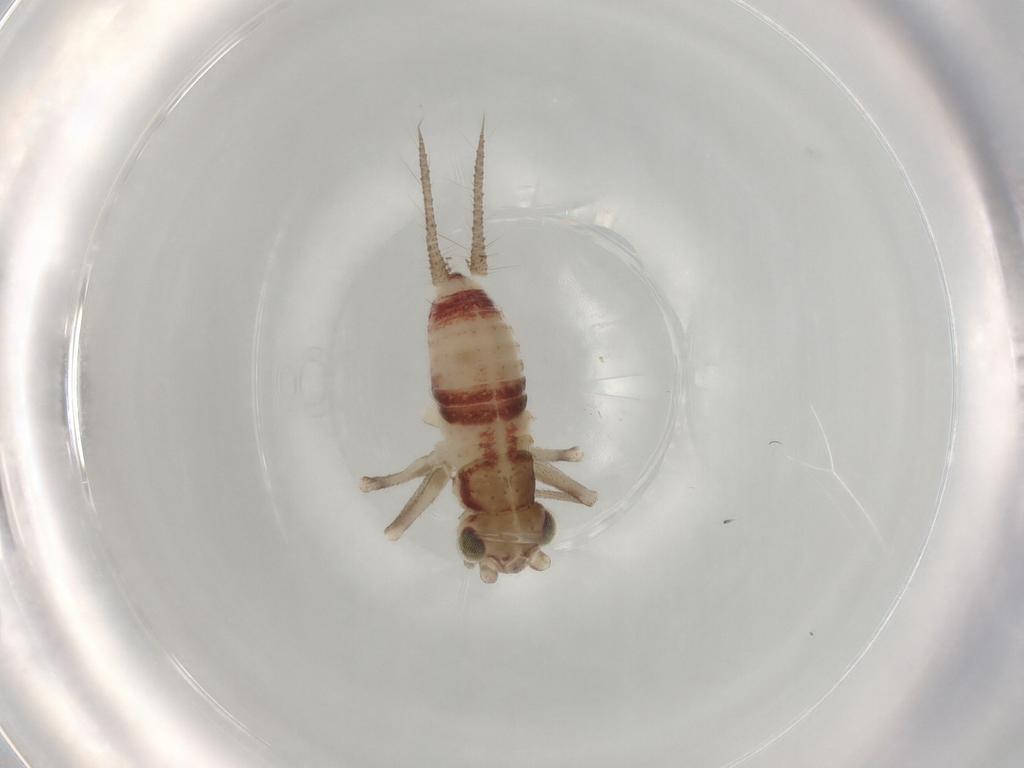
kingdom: Animalia
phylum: Arthropoda
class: Insecta
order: Orthoptera
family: Trigonidiidae
